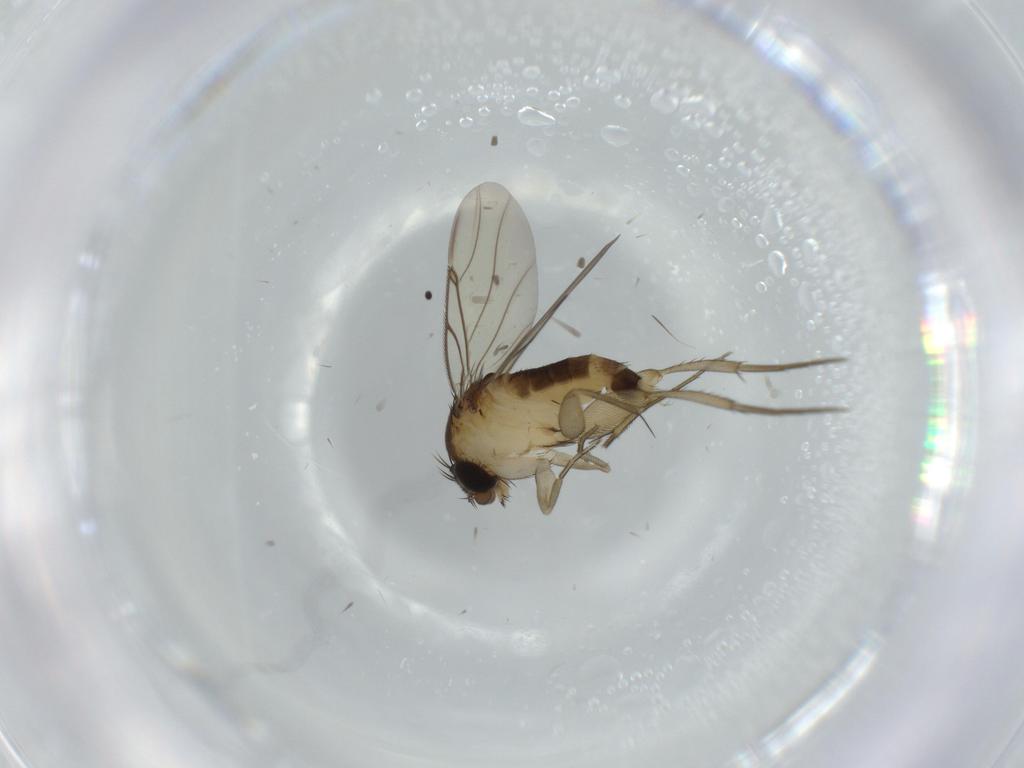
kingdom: Animalia
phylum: Arthropoda
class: Insecta
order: Diptera
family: Phoridae
